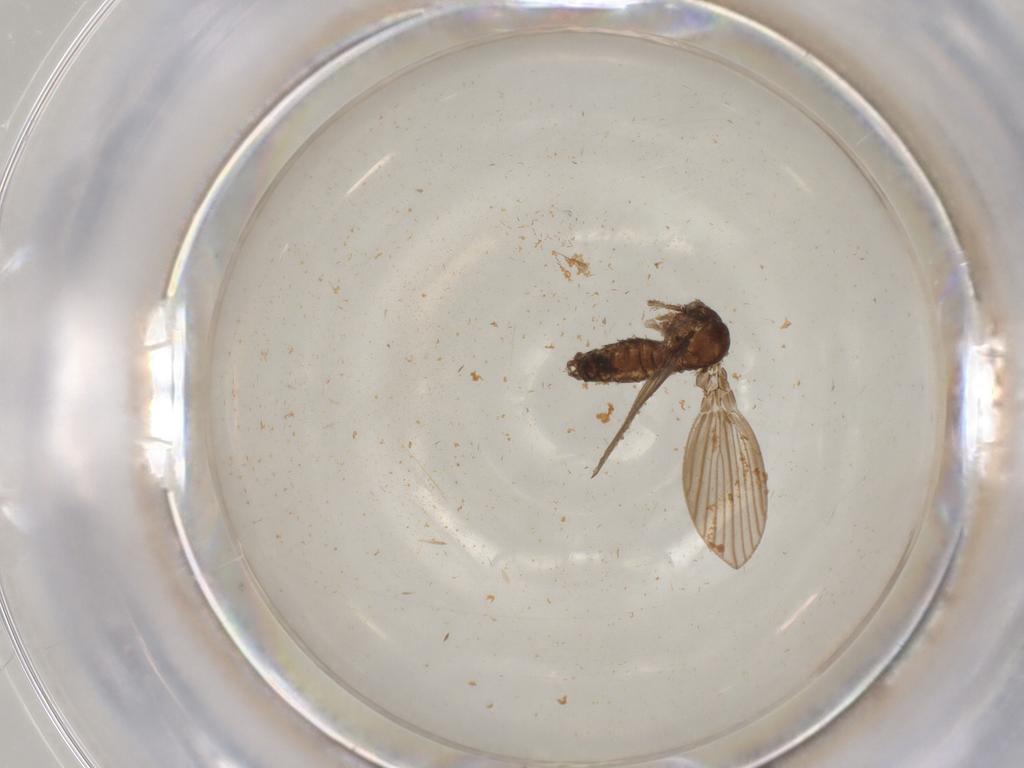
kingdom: Animalia
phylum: Arthropoda
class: Insecta
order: Diptera
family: Psychodidae
